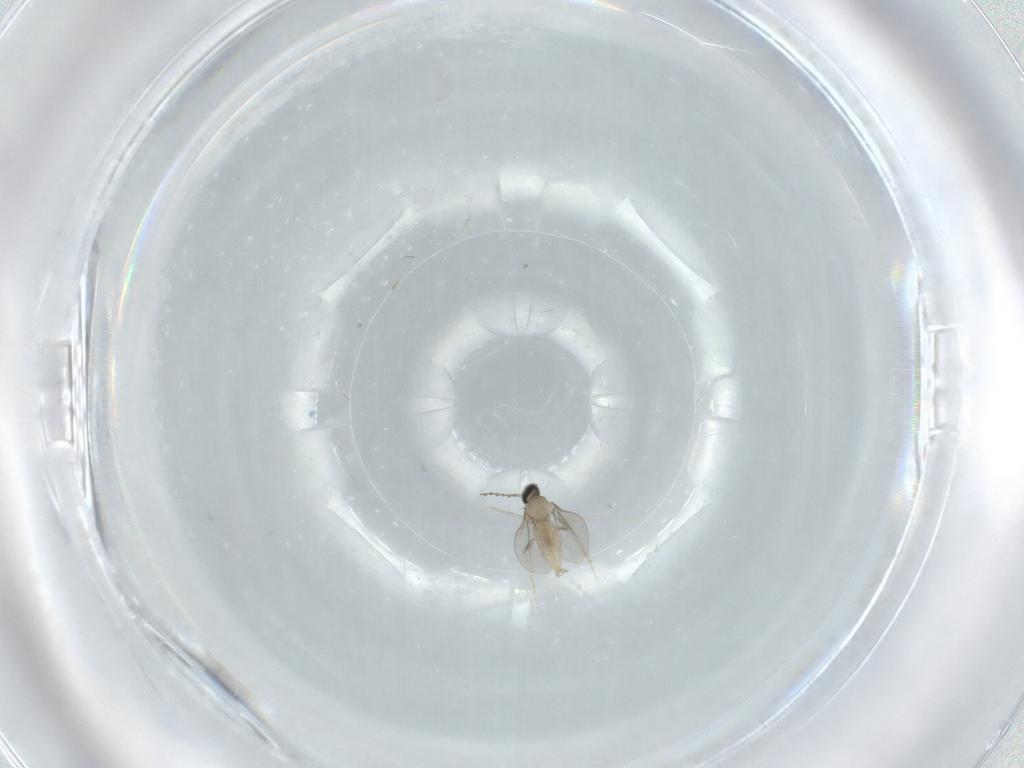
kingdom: Animalia
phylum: Arthropoda
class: Insecta
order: Diptera
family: Cecidomyiidae
